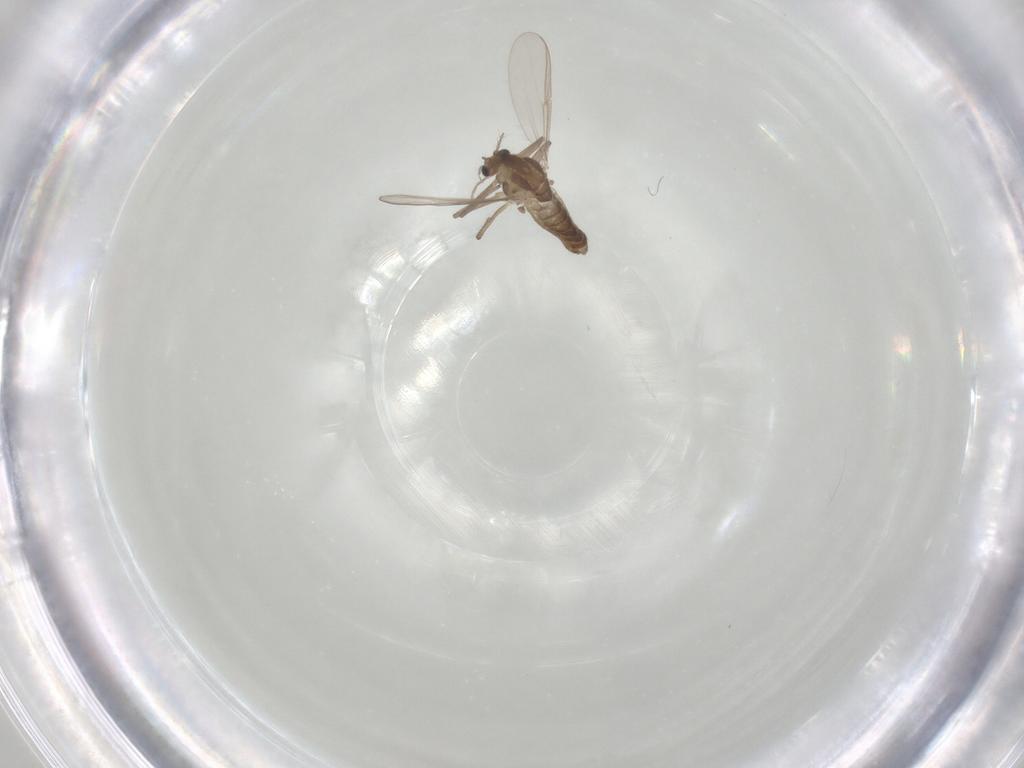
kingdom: Animalia
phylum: Arthropoda
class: Insecta
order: Diptera
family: Chironomidae
